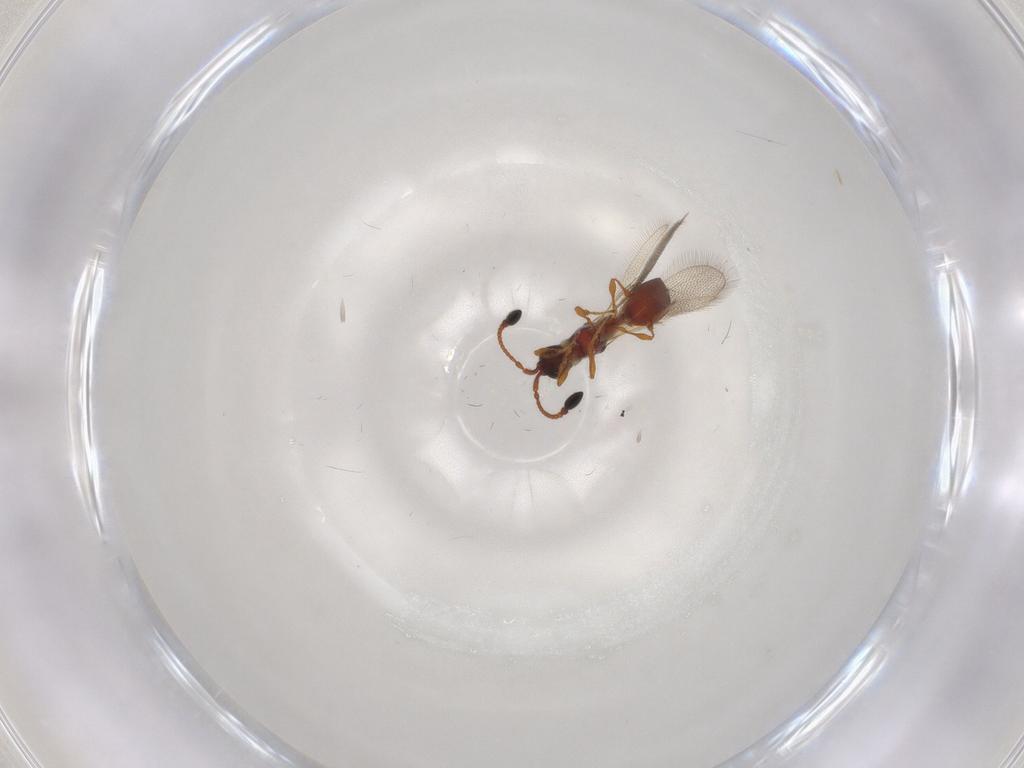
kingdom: Animalia
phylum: Arthropoda
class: Insecta
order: Hymenoptera
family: Diapriidae
